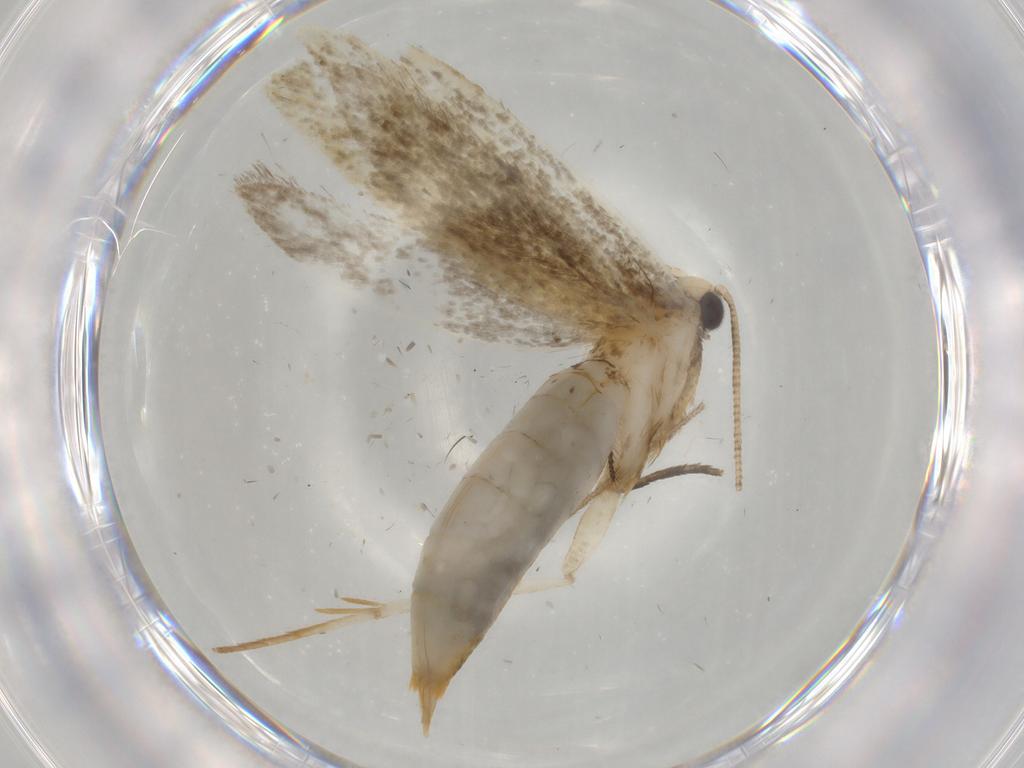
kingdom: Animalia
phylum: Arthropoda
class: Insecta
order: Lepidoptera
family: Tineidae
